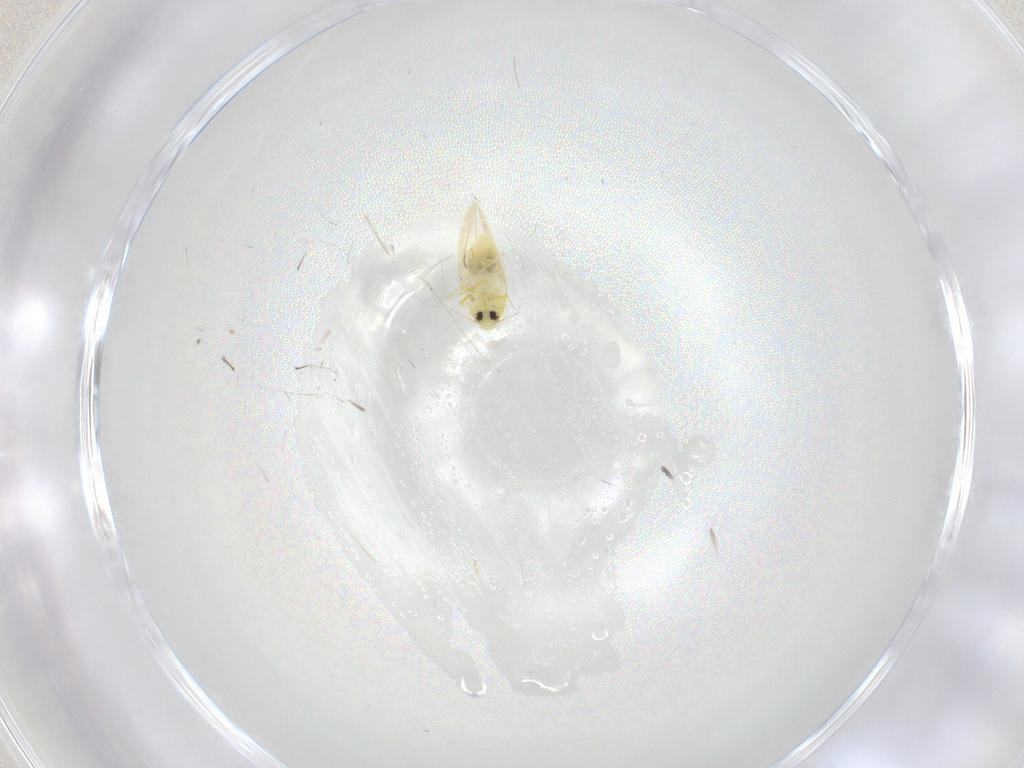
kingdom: Animalia
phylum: Arthropoda
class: Insecta
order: Hemiptera
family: Aleyrodidae
